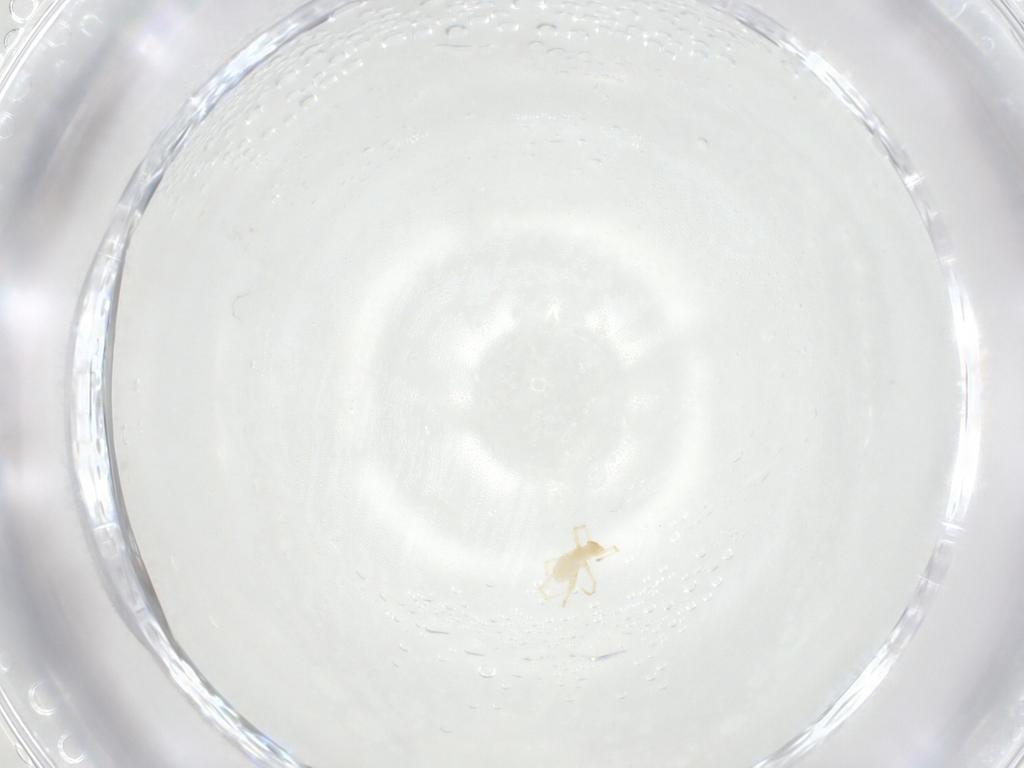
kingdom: Animalia
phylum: Arthropoda
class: Arachnida
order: Trombidiformes
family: Erythraeidae
